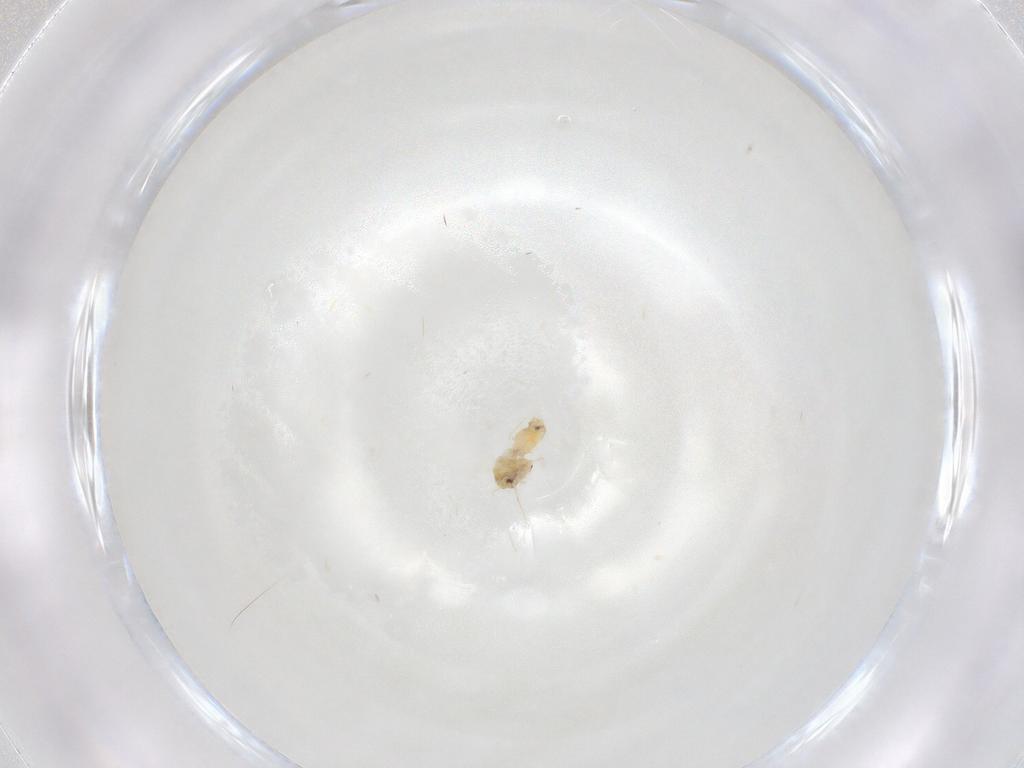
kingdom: Animalia
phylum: Arthropoda
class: Insecta
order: Hemiptera
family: Aleyrodidae
